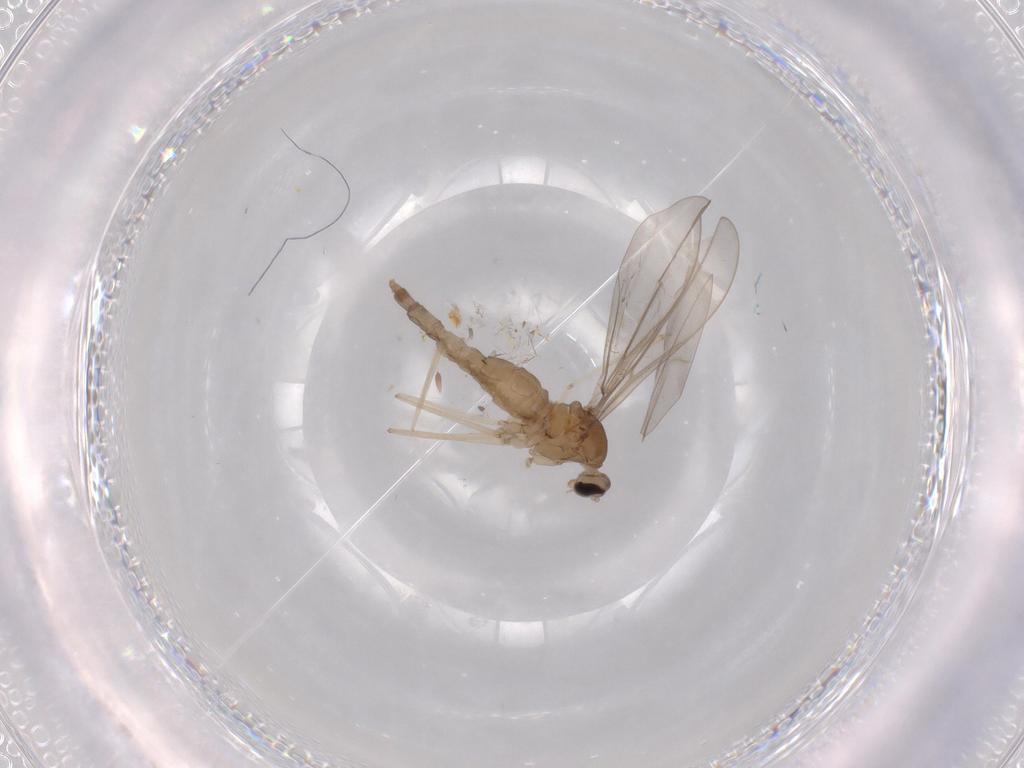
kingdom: Animalia
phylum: Arthropoda
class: Insecta
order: Diptera
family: Cecidomyiidae
